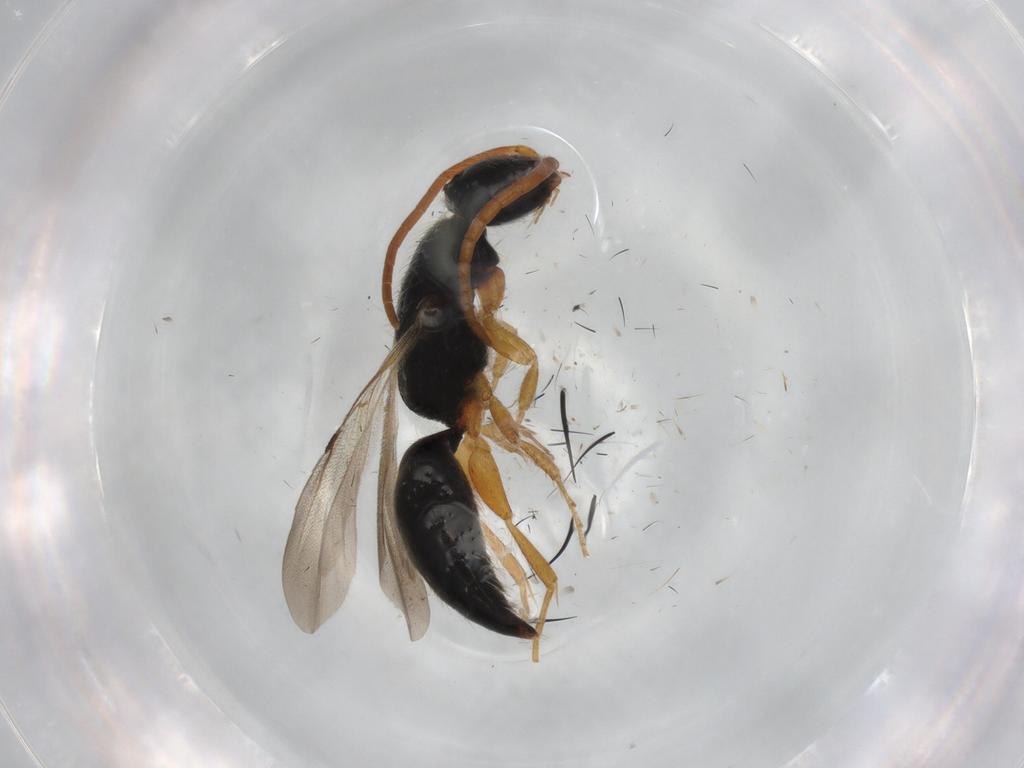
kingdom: Animalia
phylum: Arthropoda
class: Insecta
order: Hymenoptera
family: Bethylidae
